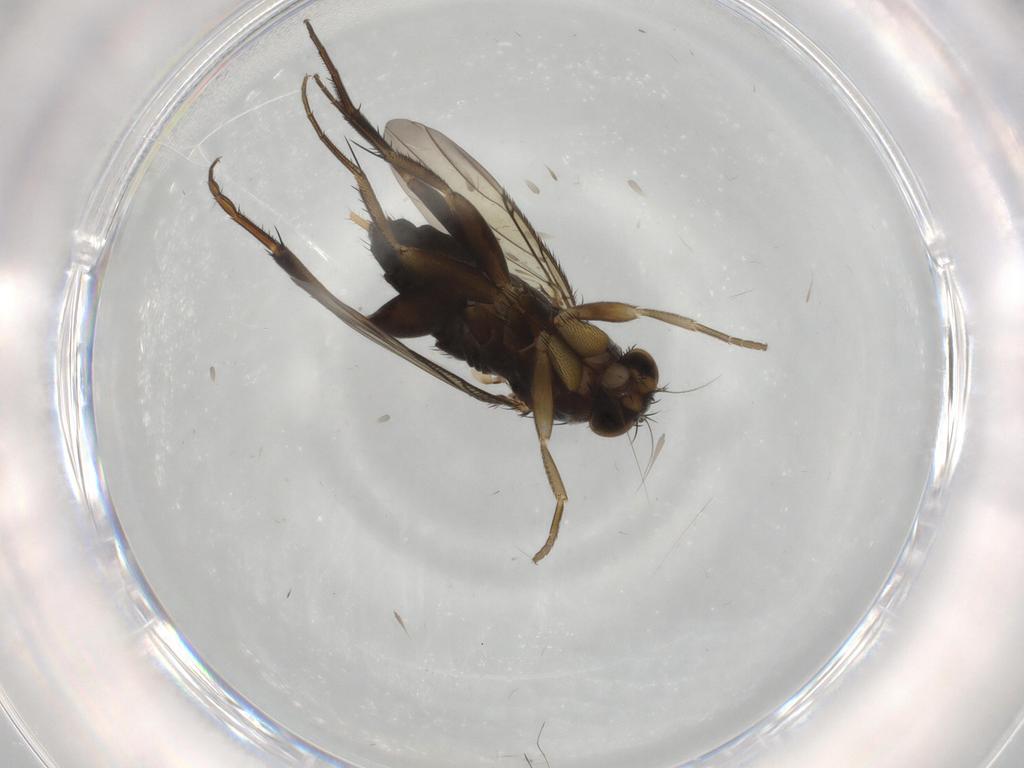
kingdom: Animalia
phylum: Arthropoda
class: Insecta
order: Diptera
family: Phoridae
